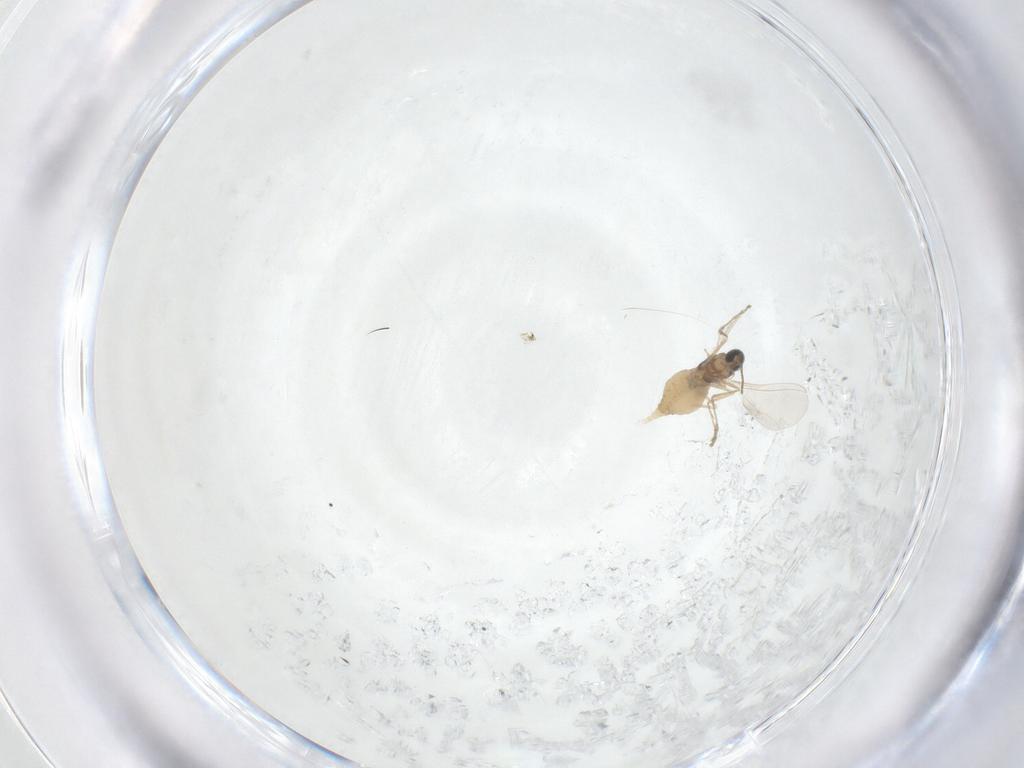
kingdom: Animalia
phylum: Arthropoda
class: Insecta
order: Diptera
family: Cecidomyiidae
